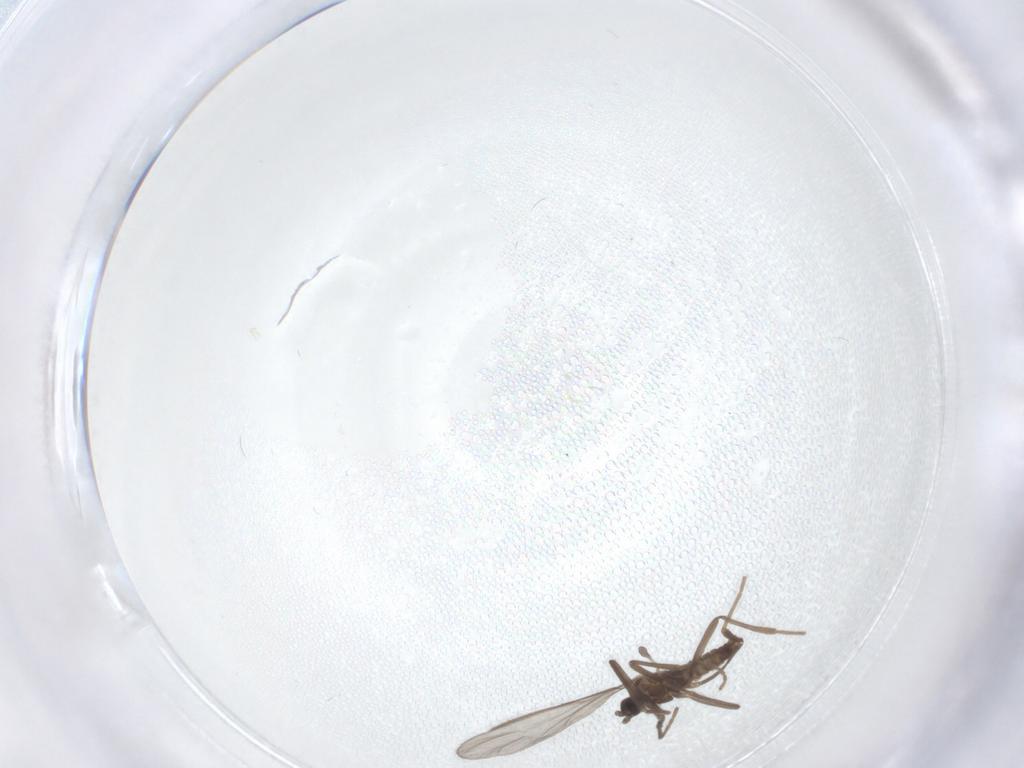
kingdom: Animalia
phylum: Arthropoda
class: Insecta
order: Diptera
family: Cecidomyiidae
